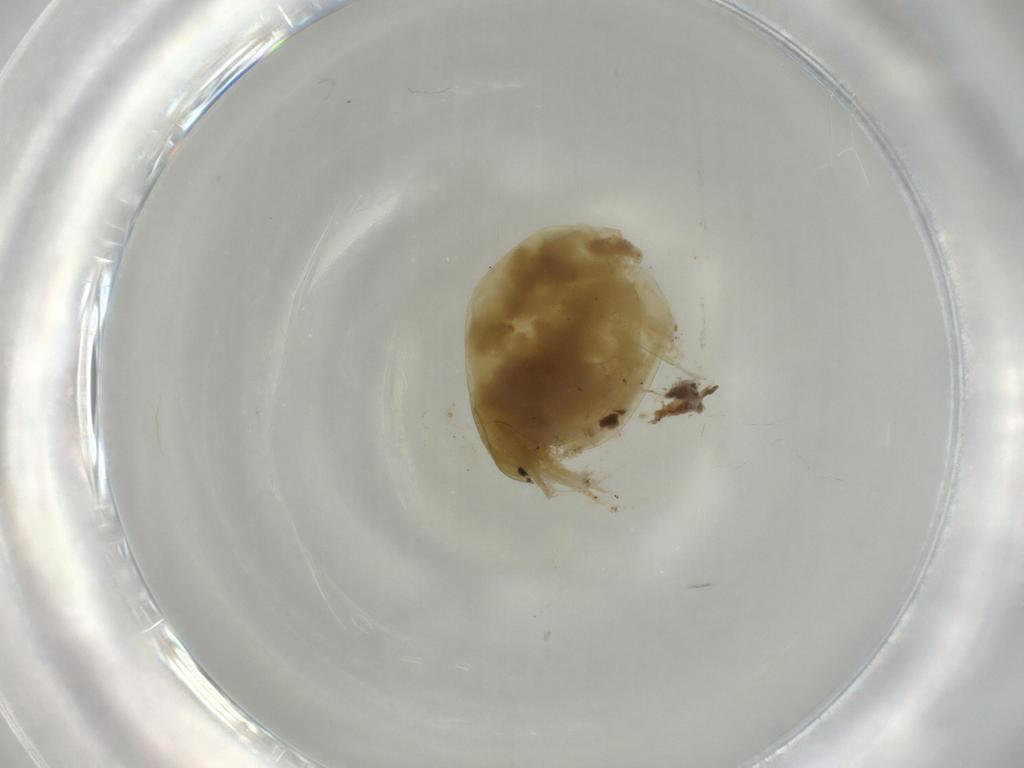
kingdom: Animalia
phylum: Arthropoda
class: Branchiopoda
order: Anomopoda
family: Daphniidae
